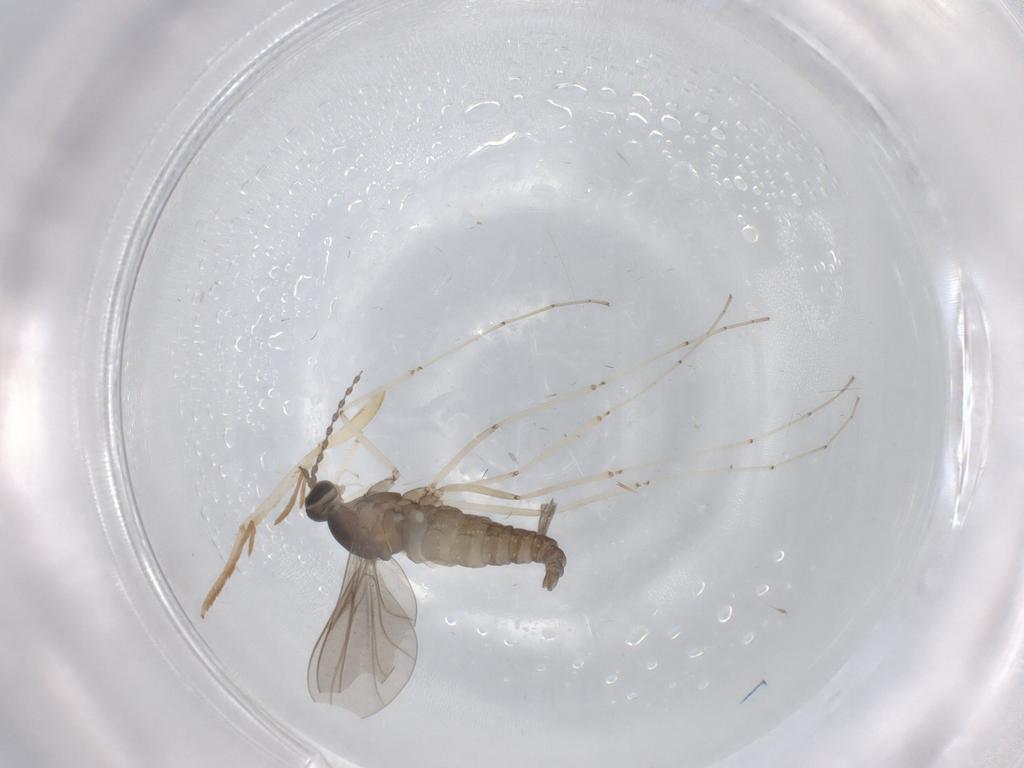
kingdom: Animalia
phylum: Arthropoda
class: Insecta
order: Diptera
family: Cecidomyiidae
